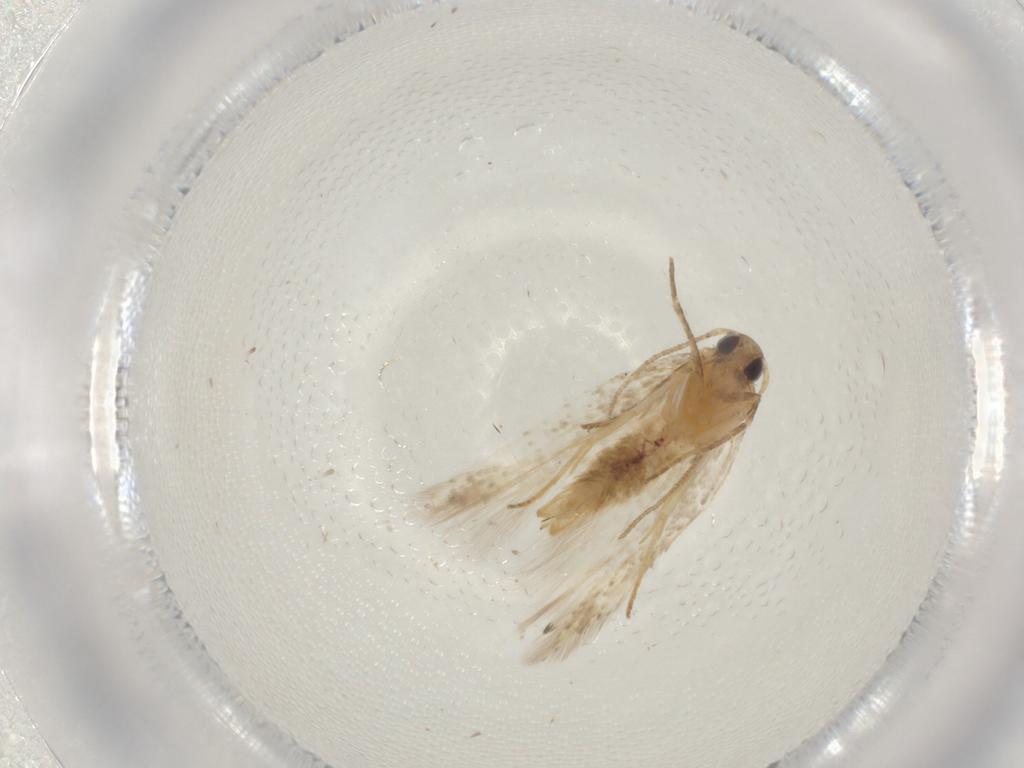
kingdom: Animalia
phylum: Arthropoda
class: Insecta
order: Lepidoptera
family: Gelechiidae
